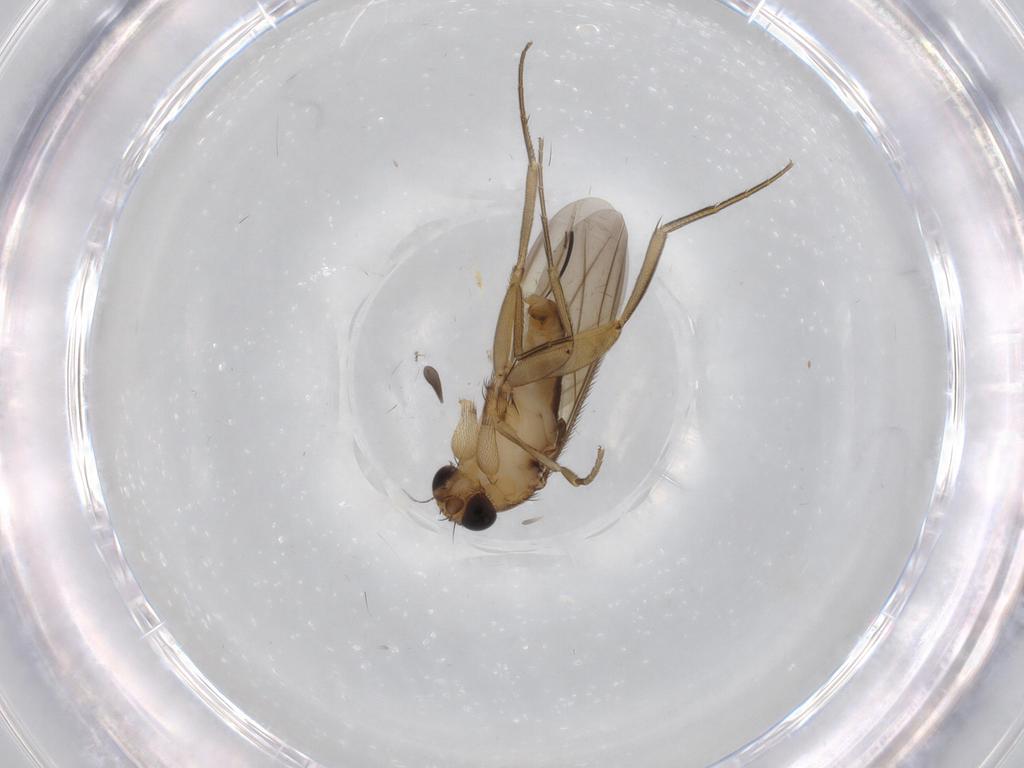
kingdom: Animalia
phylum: Arthropoda
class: Insecta
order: Diptera
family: Phoridae
